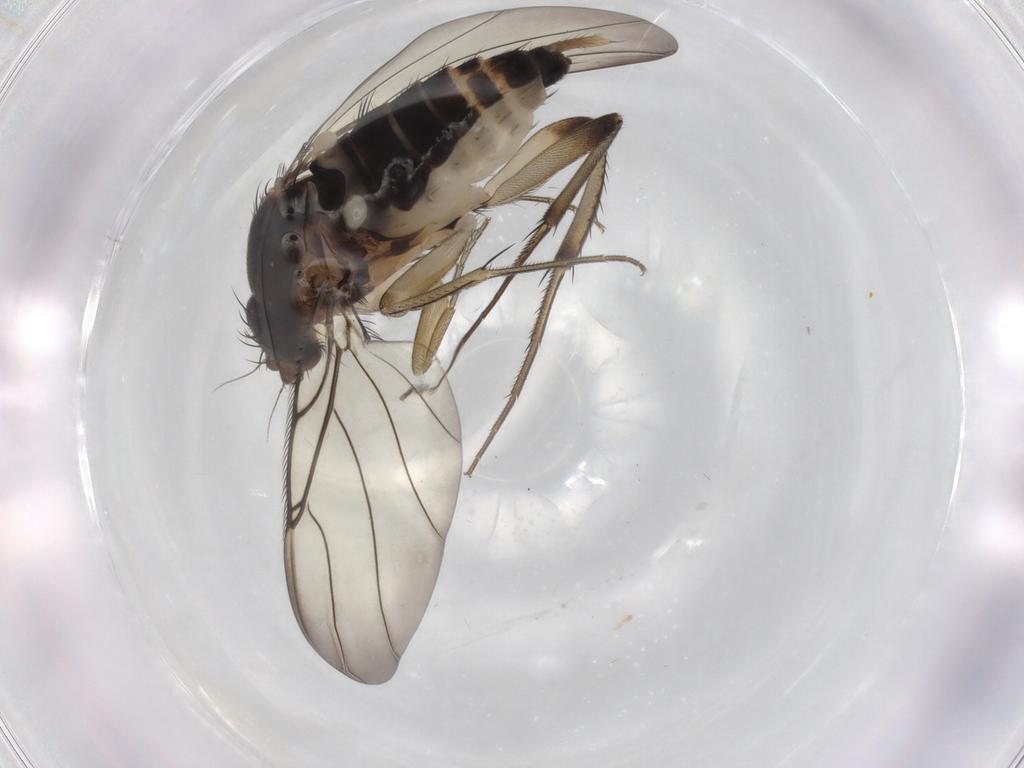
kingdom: Animalia
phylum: Arthropoda
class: Insecta
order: Diptera
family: Phoridae
